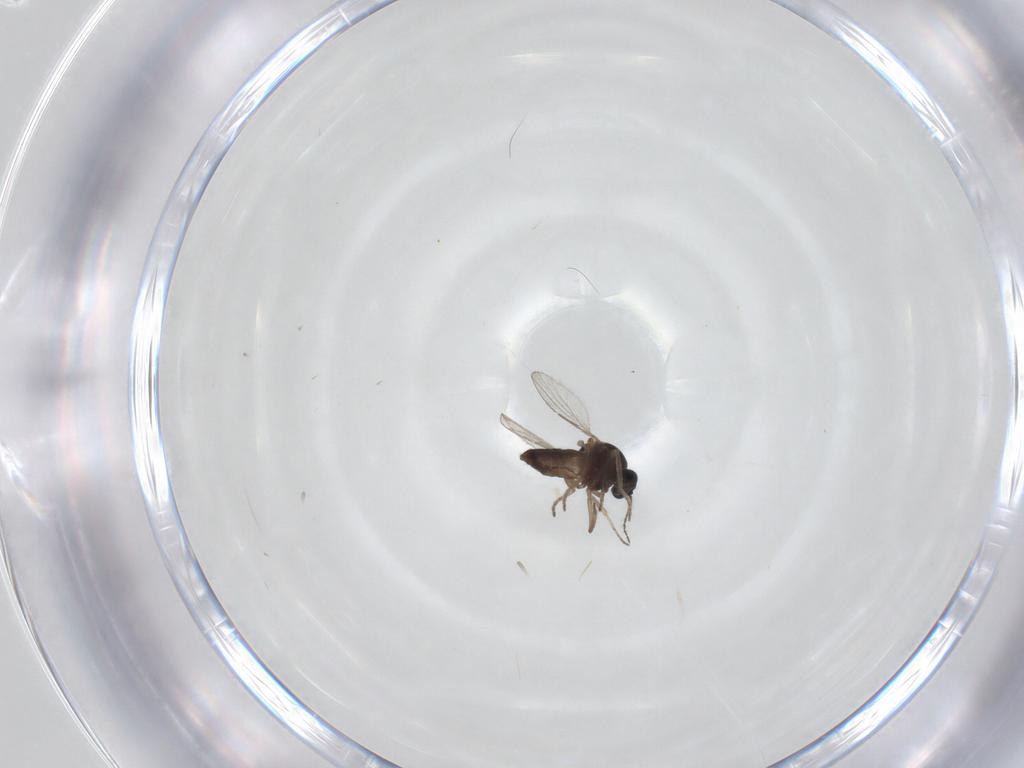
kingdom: Animalia
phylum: Arthropoda
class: Insecta
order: Diptera
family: Ceratopogonidae
